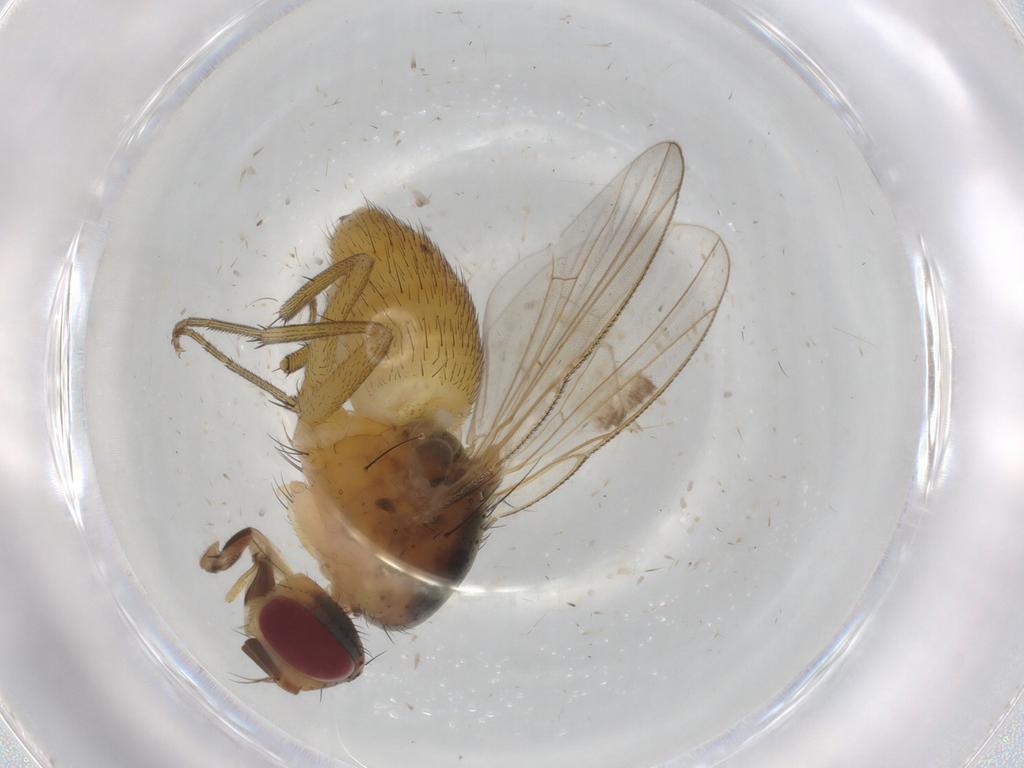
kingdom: Animalia
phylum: Arthropoda
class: Insecta
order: Diptera
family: Muscidae
